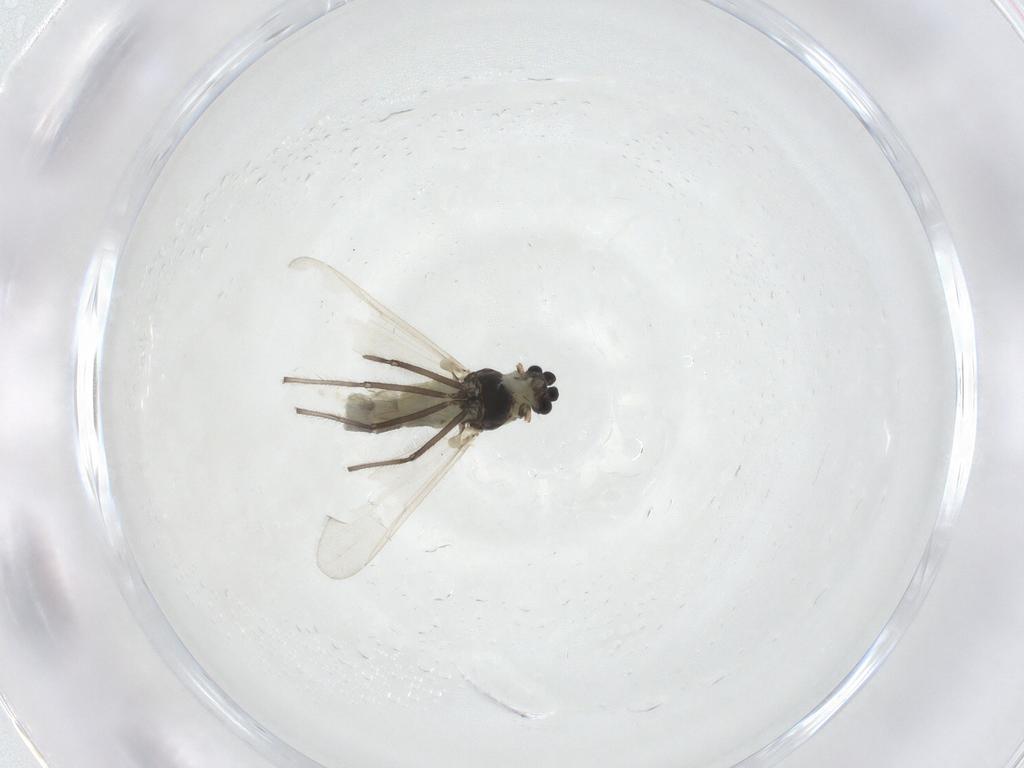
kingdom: Animalia
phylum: Arthropoda
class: Insecta
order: Diptera
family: Chironomidae
